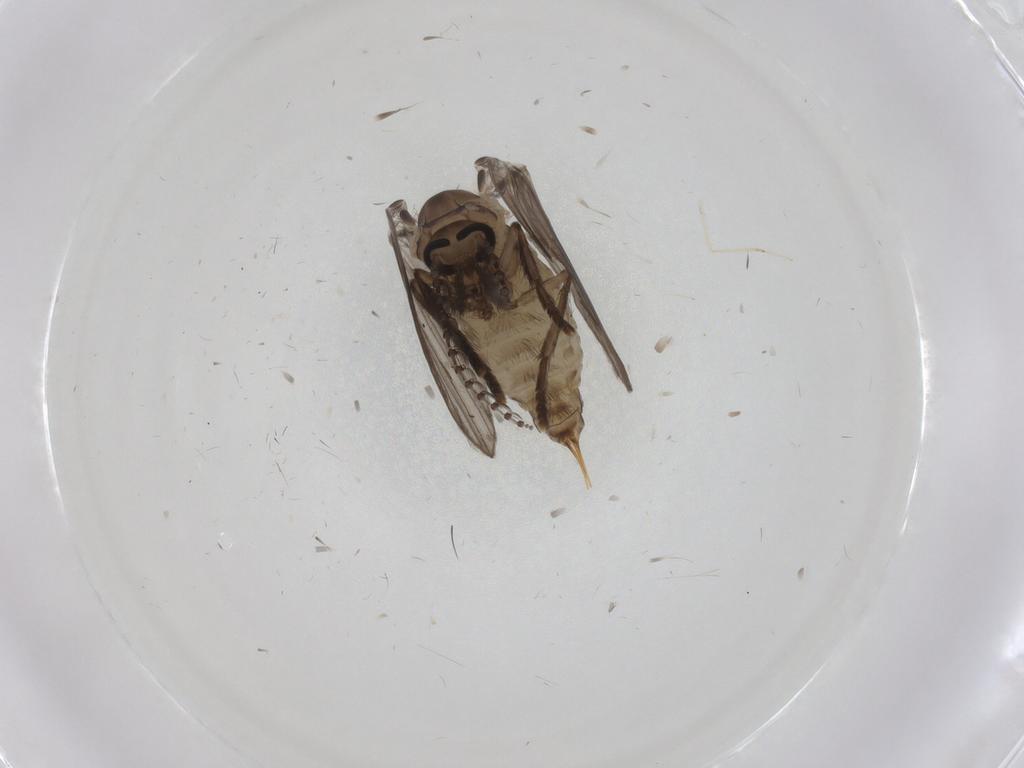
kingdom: Animalia
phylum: Arthropoda
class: Insecta
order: Diptera
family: Psychodidae
